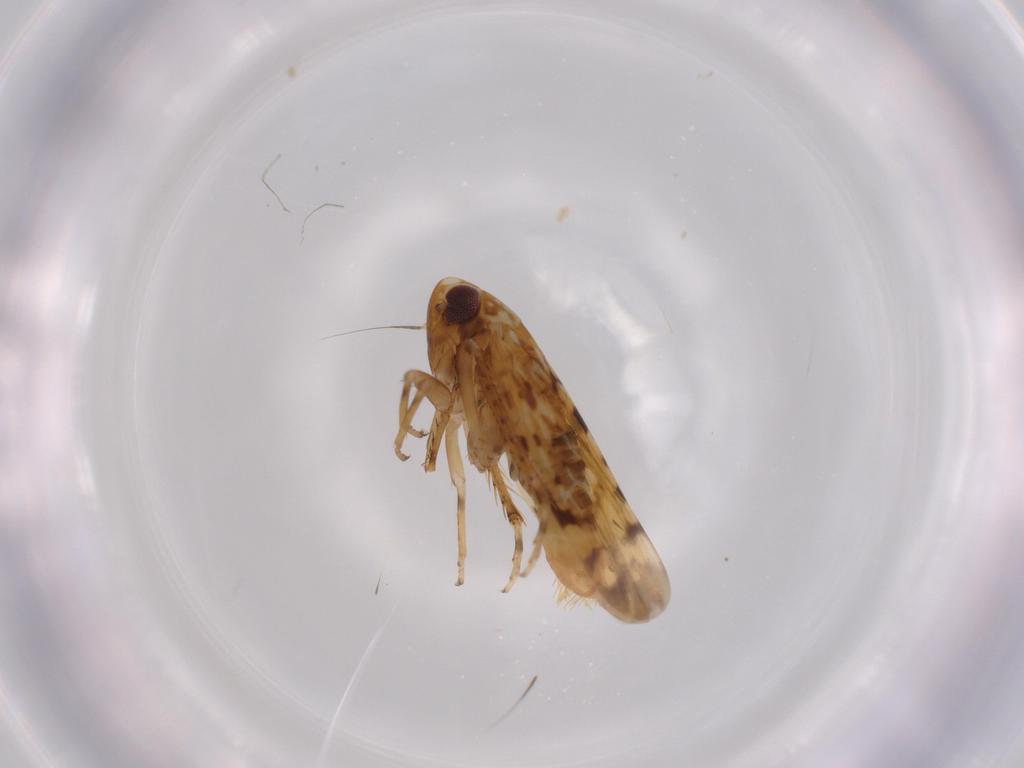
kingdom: Animalia
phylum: Arthropoda
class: Insecta
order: Hemiptera
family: Cicadellidae
